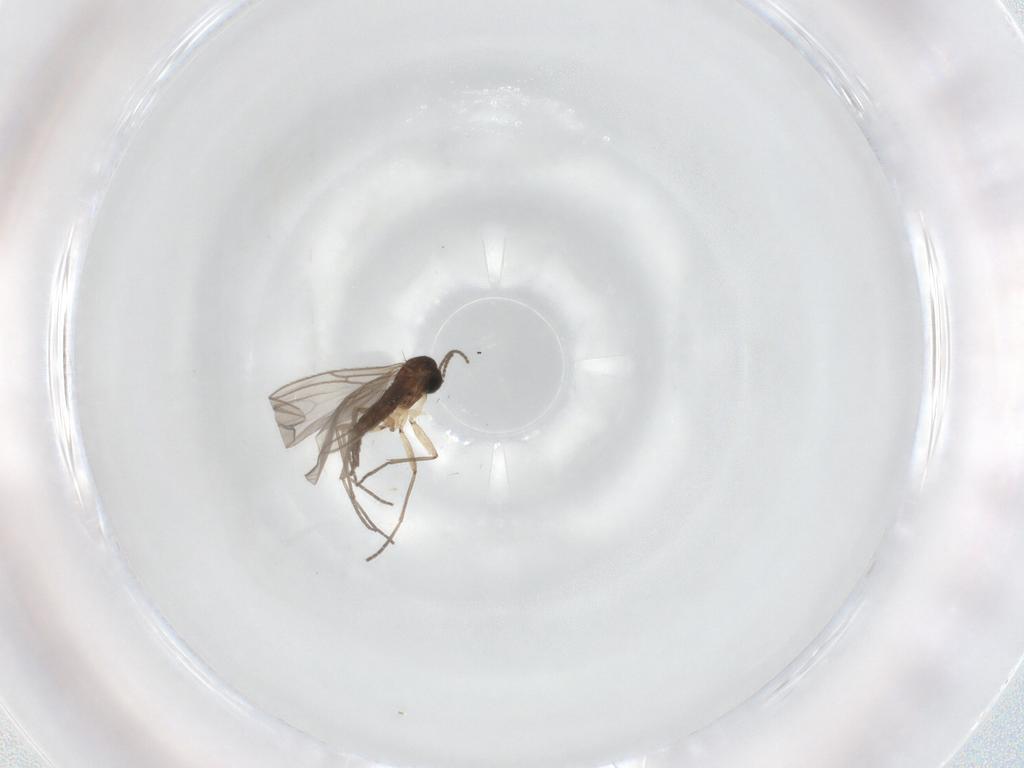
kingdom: Animalia
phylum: Arthropoda
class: Insecta
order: Diptera
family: Sciaridae
